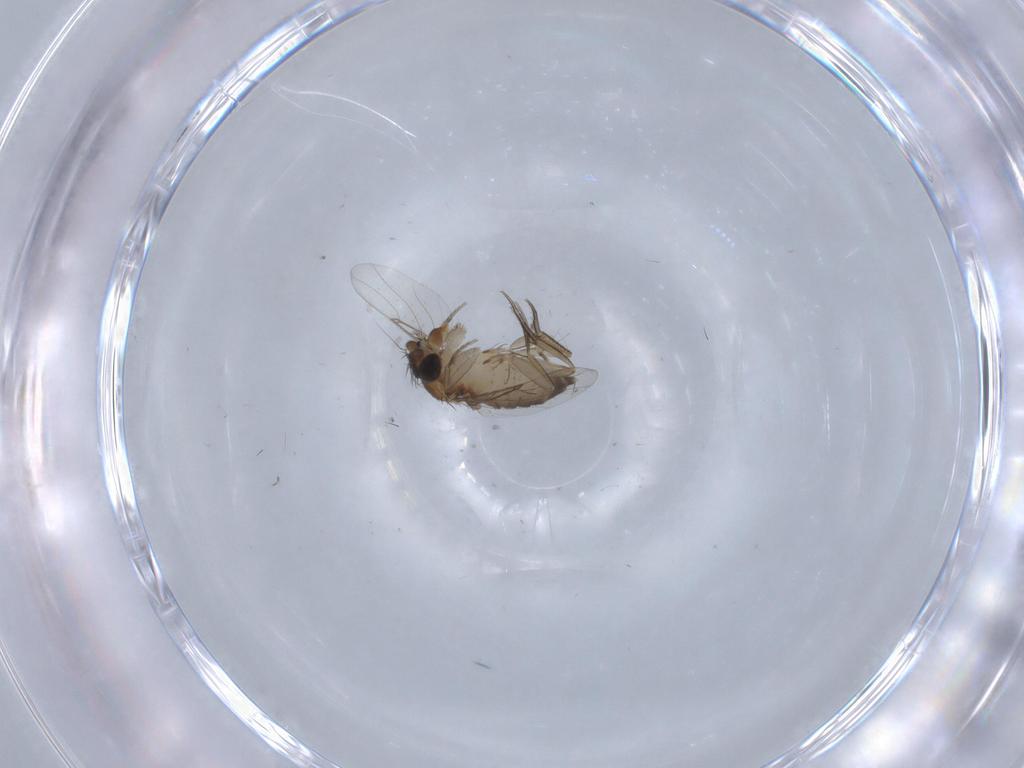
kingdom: Animalia
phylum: Arthropoda
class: Insecta
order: Diptera
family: Phoridae
